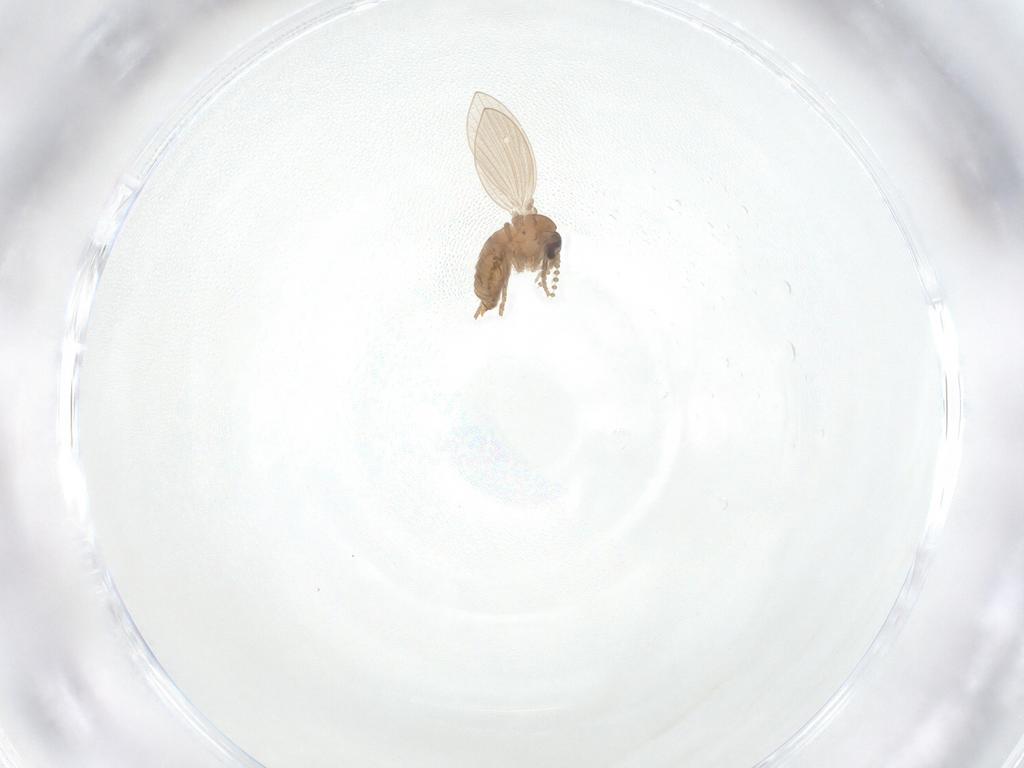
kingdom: Animalia
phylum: Arthropoda
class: Insecta
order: Diptera
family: Psychodidae
